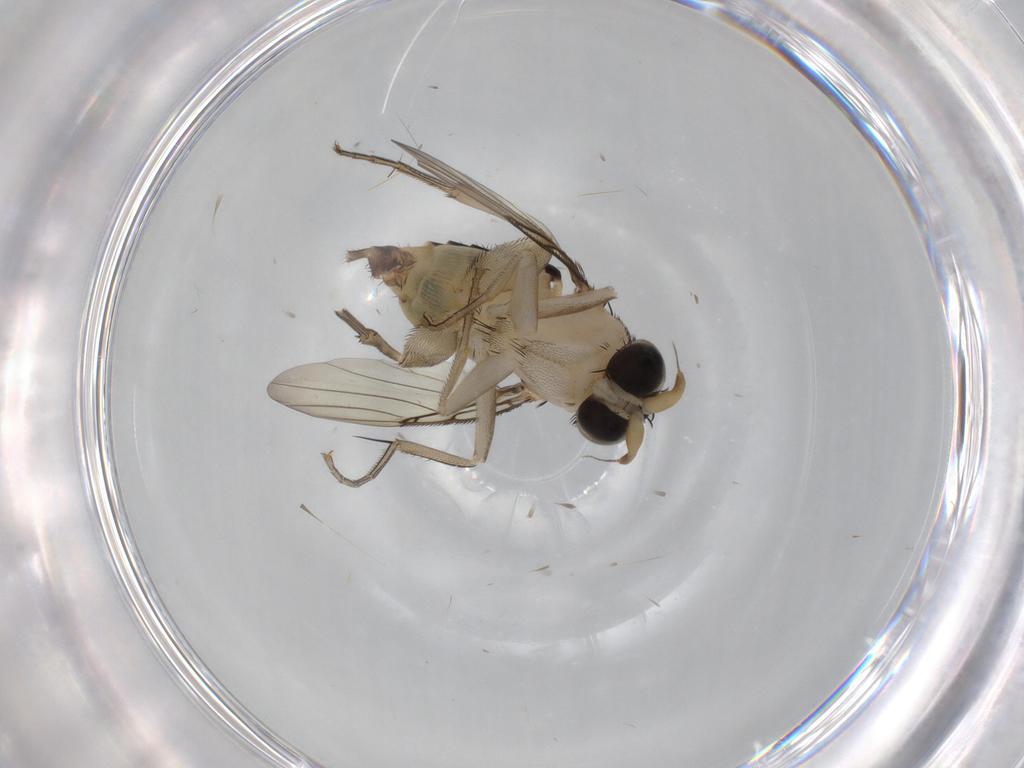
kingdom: Animalia
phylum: Arthropoda
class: Insecta
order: Diptera
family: Phoridae
